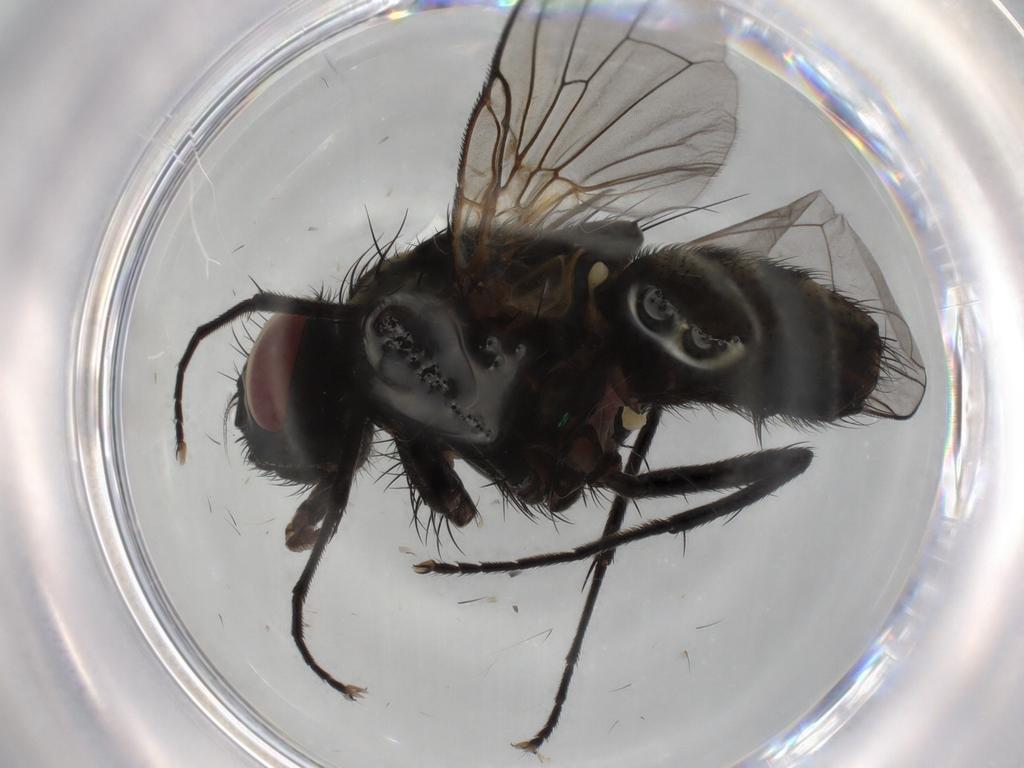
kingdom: Animalia
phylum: Arthropoda
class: Insecta
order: Diptera
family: Muscidae
